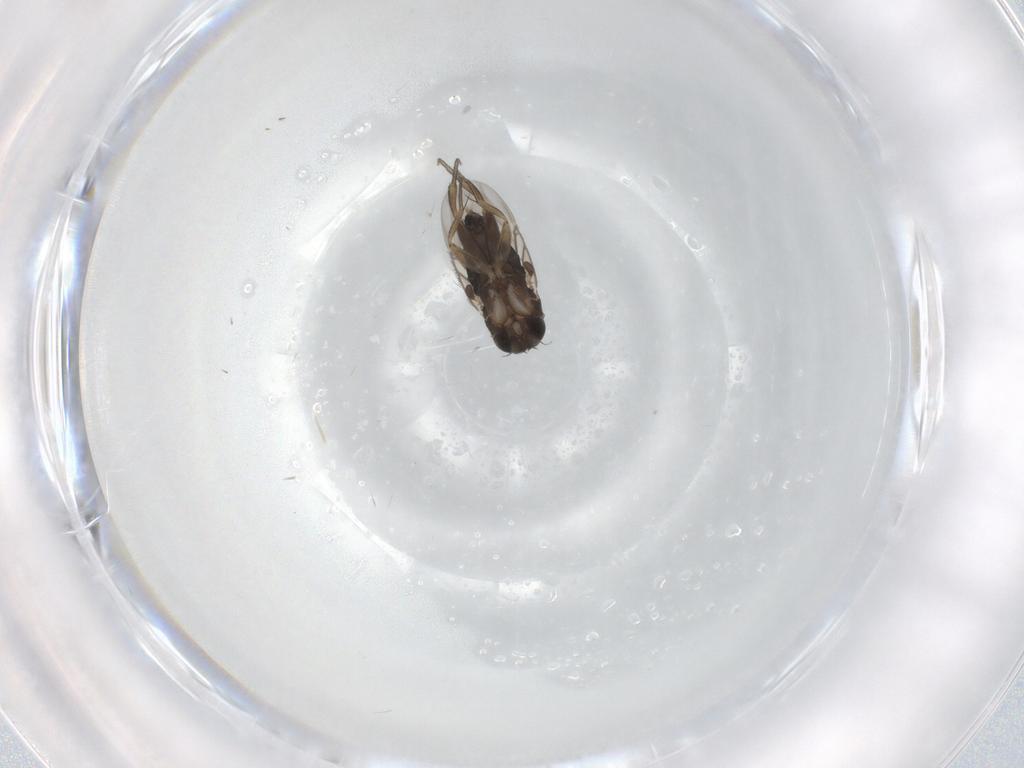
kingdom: Animalia
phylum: Arthropoda
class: Insecta
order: Diptera
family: Phoridae
